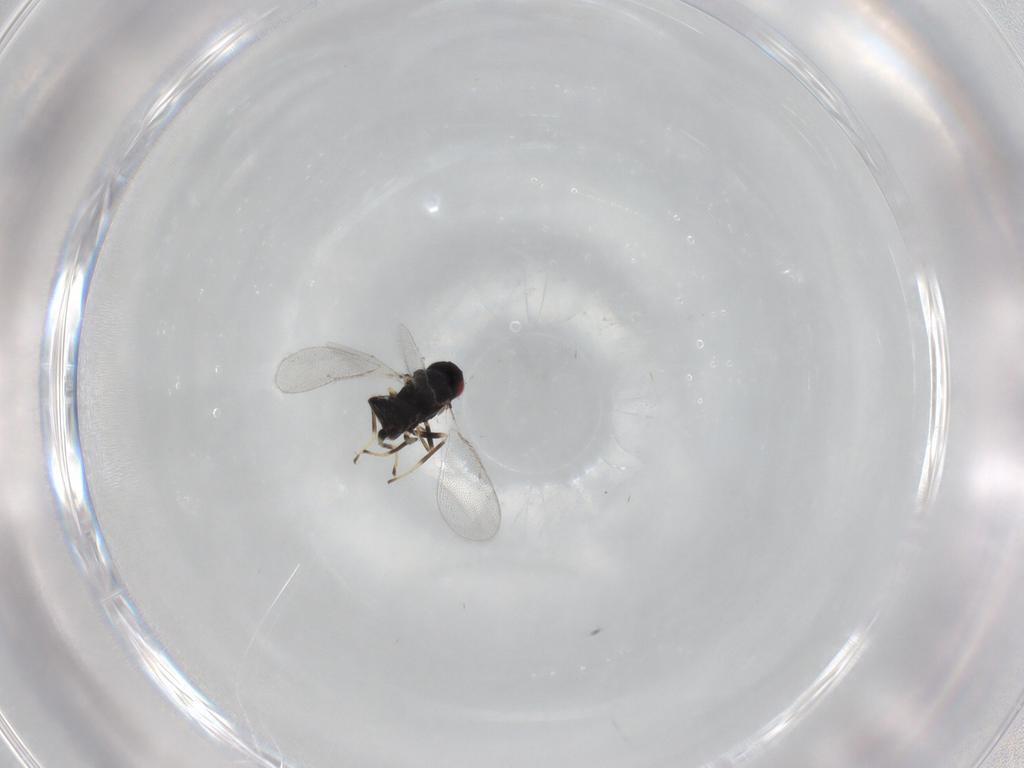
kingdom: Animalia
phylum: Arthropoda
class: Insecta
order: Hymenoptera
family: Eulophidae
